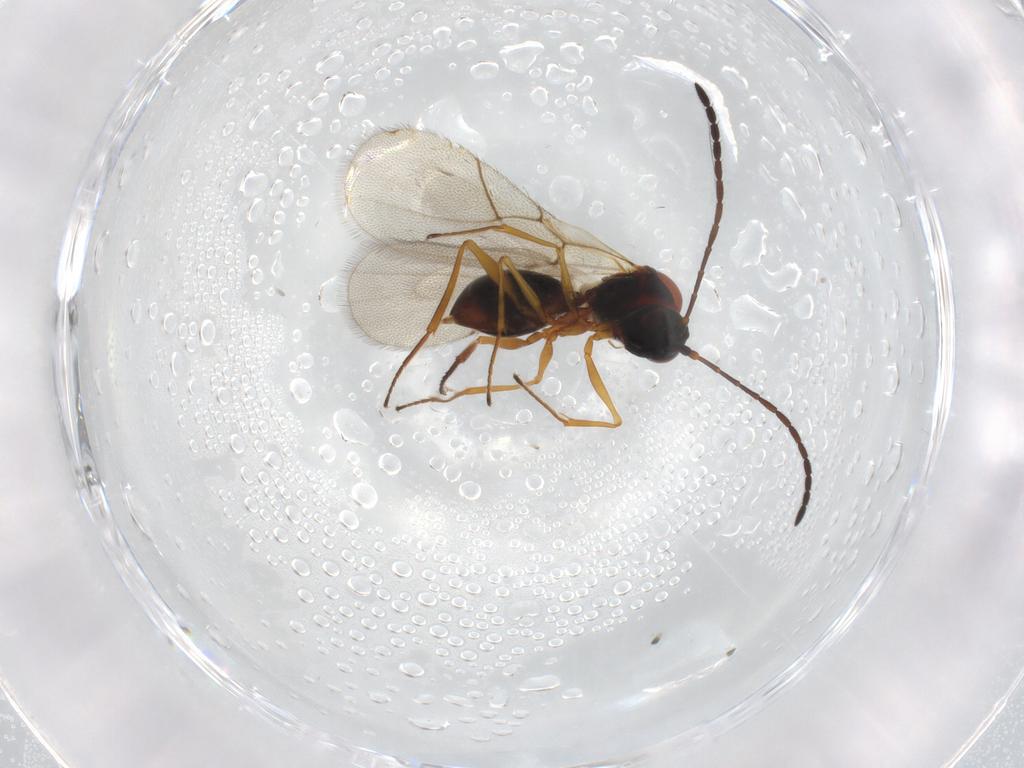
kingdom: Animalia
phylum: Arthropoda
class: Insecta
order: Hymenoptera
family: Figitidae
